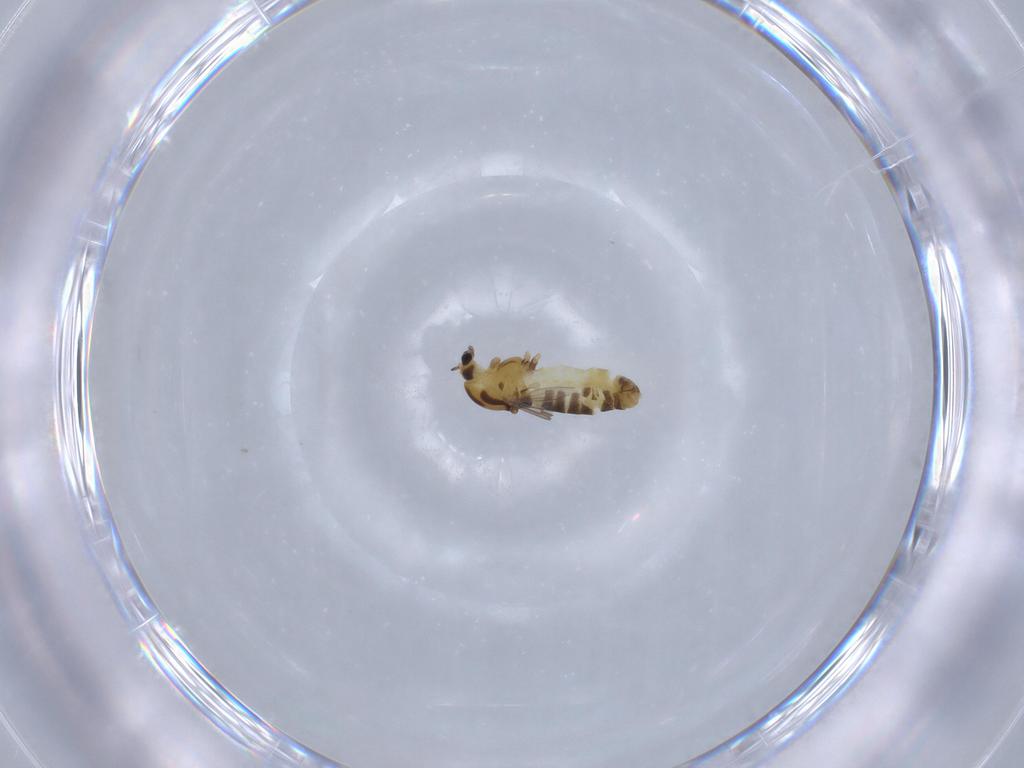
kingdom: Animalia
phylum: Arthropoda
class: Insecta
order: Diptera
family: Chironomidae
